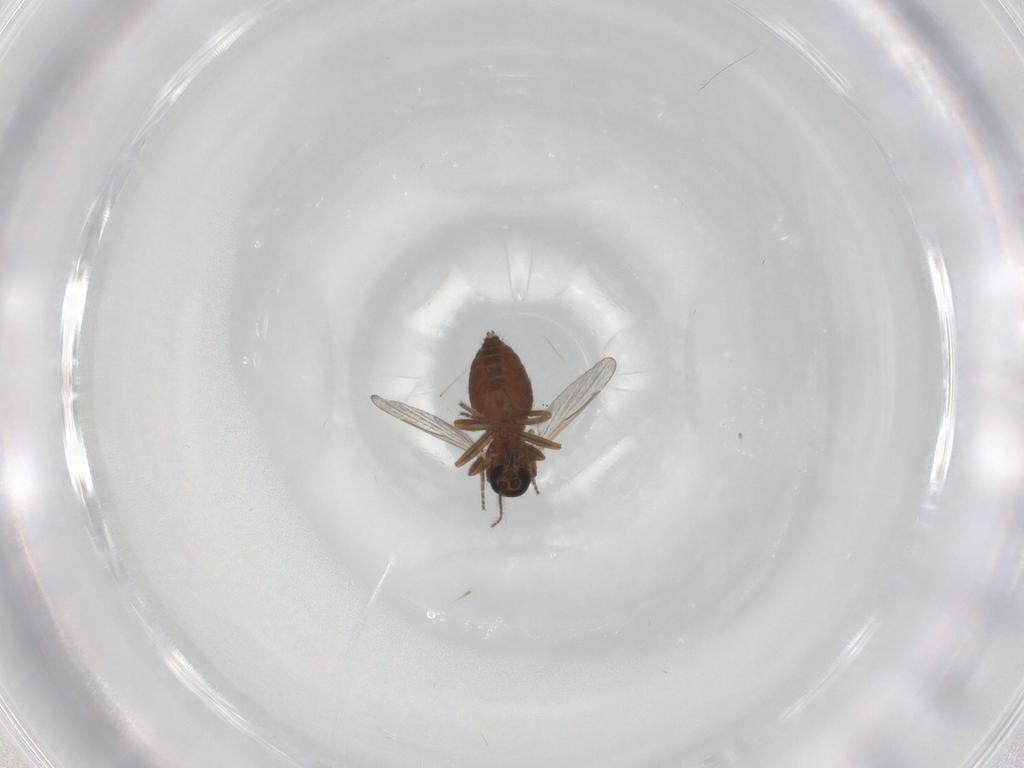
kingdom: Animalia
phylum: Arthropoda
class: Insecta
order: Diptera
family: Ceratopogonidae
